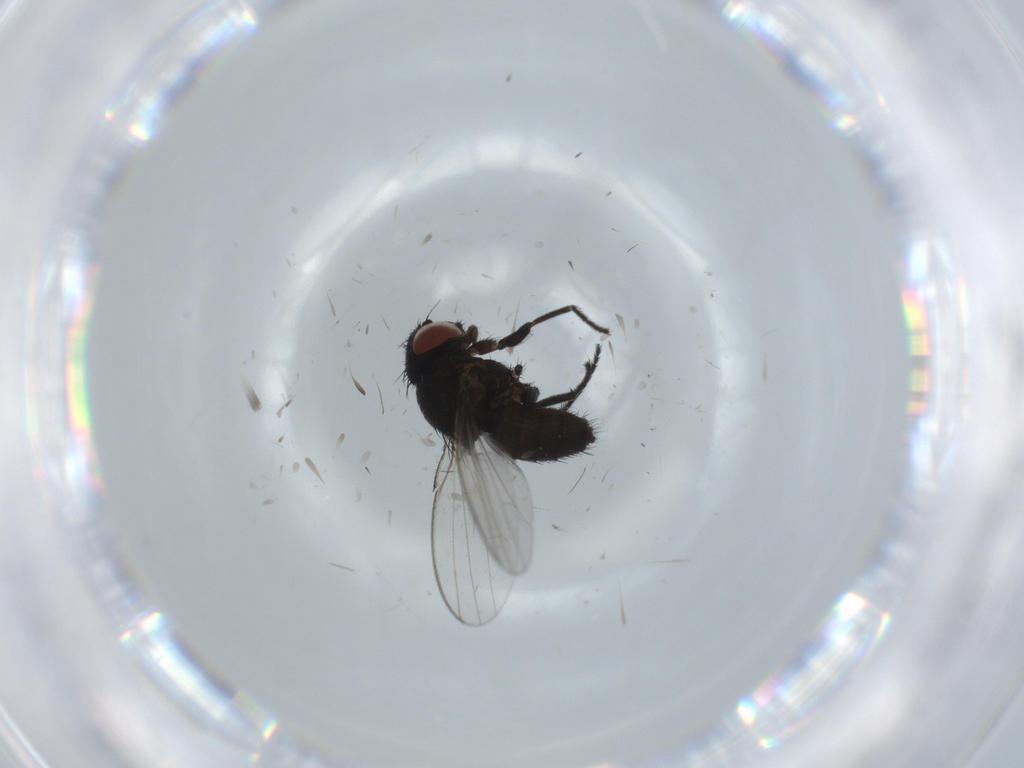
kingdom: Animalia
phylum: Arthropoda
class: Insecta
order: Diptera
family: Milichiidae
